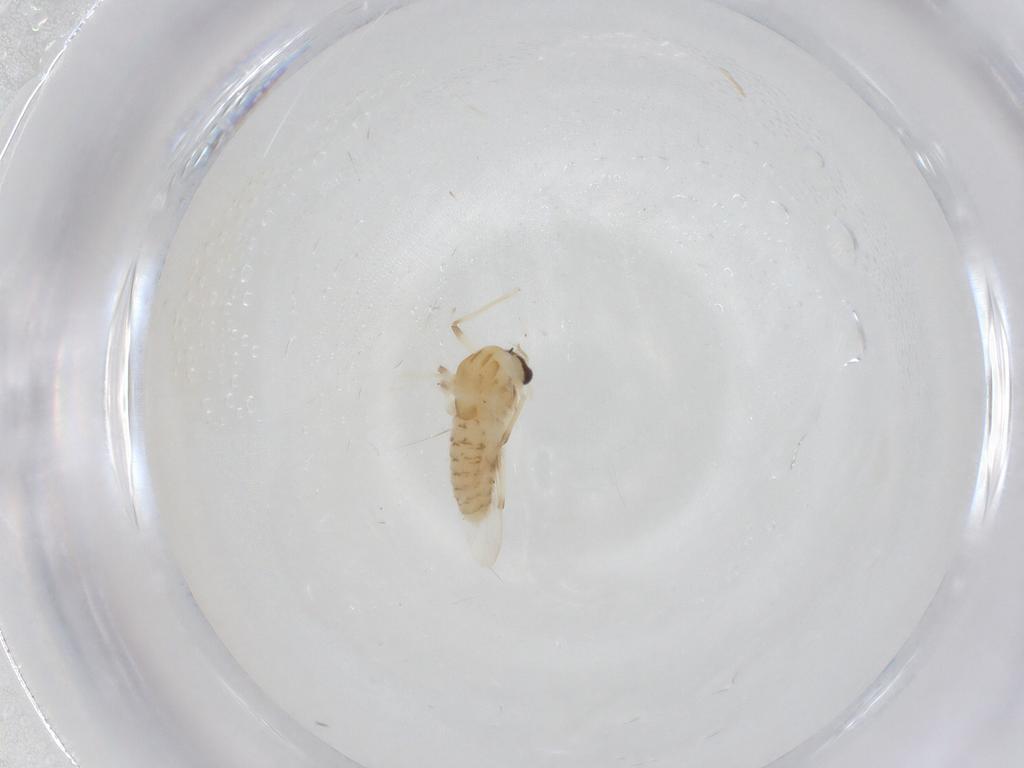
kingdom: Animalia
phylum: Arthropoda
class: Insecta
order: Diptera
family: Chironomidae
